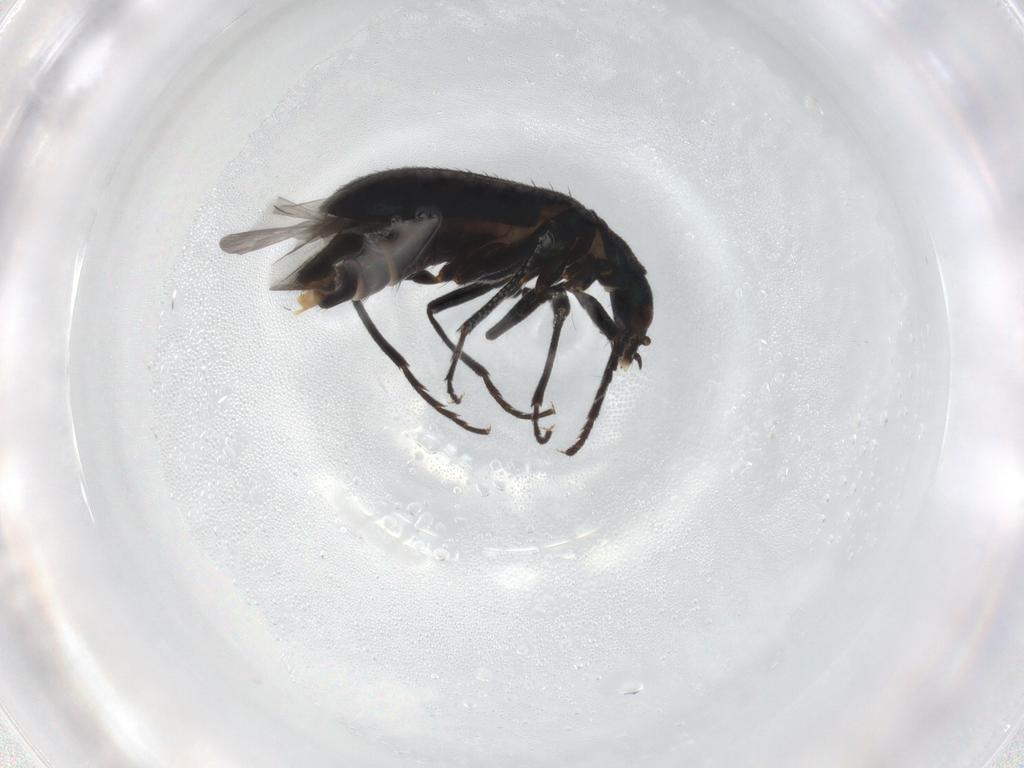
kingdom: Animalia
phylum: Arthropoda
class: Insecta
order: Coleoptera
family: Melyridae
